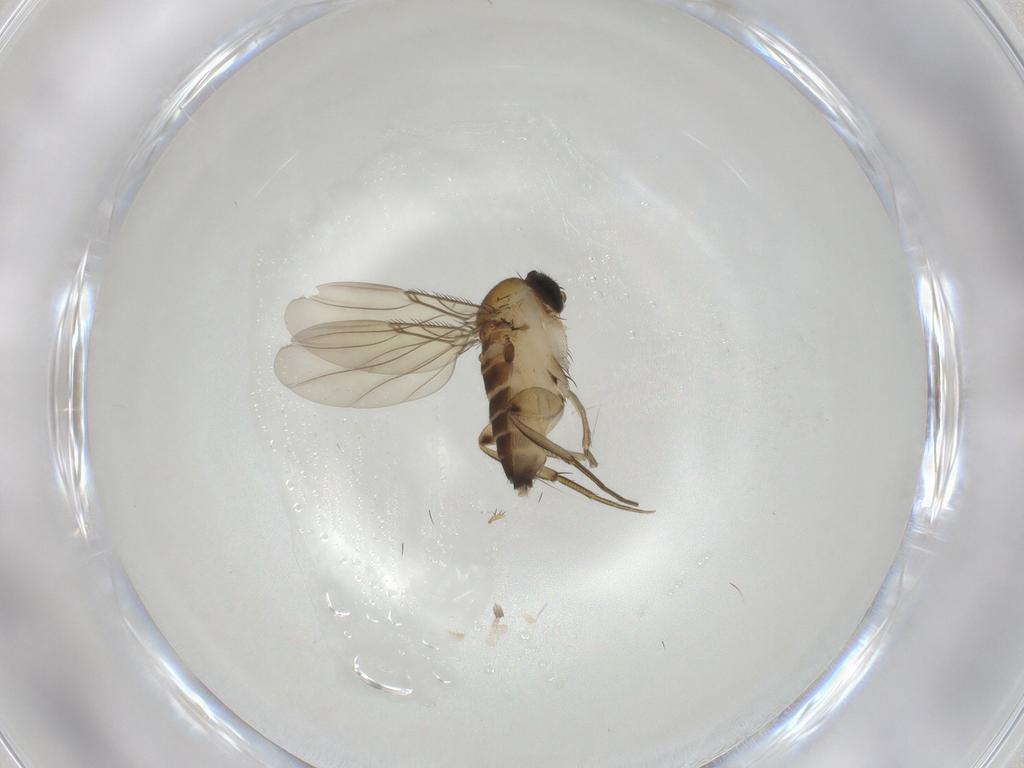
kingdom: Animalia
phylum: Arthropoda
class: Insecta
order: Diptera
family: Phoridae
